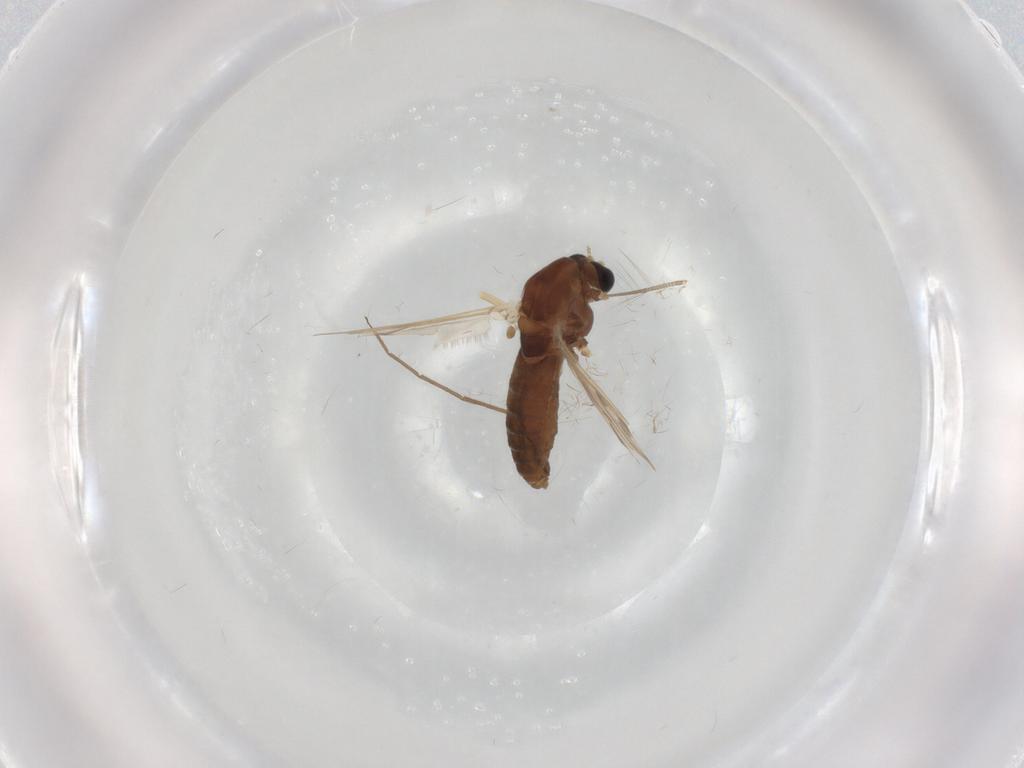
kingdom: Animalia
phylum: Arthropoda
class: Insecta
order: Diptera
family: Chironomidae
